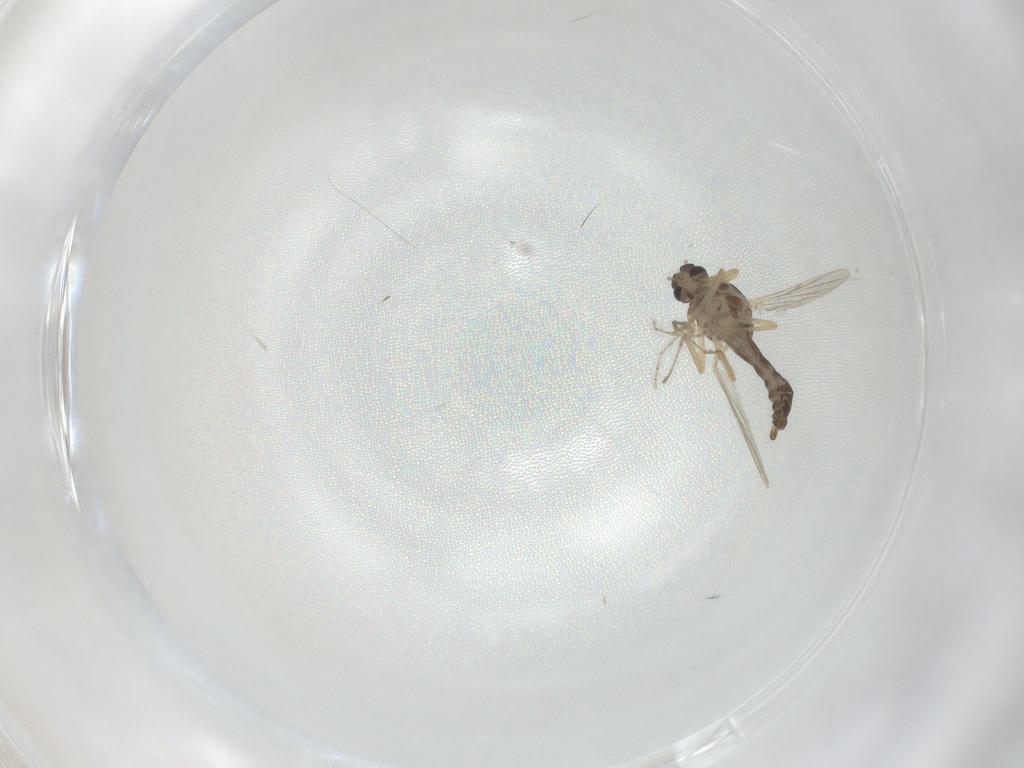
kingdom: Animalia
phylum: Arthropoda
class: Insecta
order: Diptera
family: Ceratopogonidae
